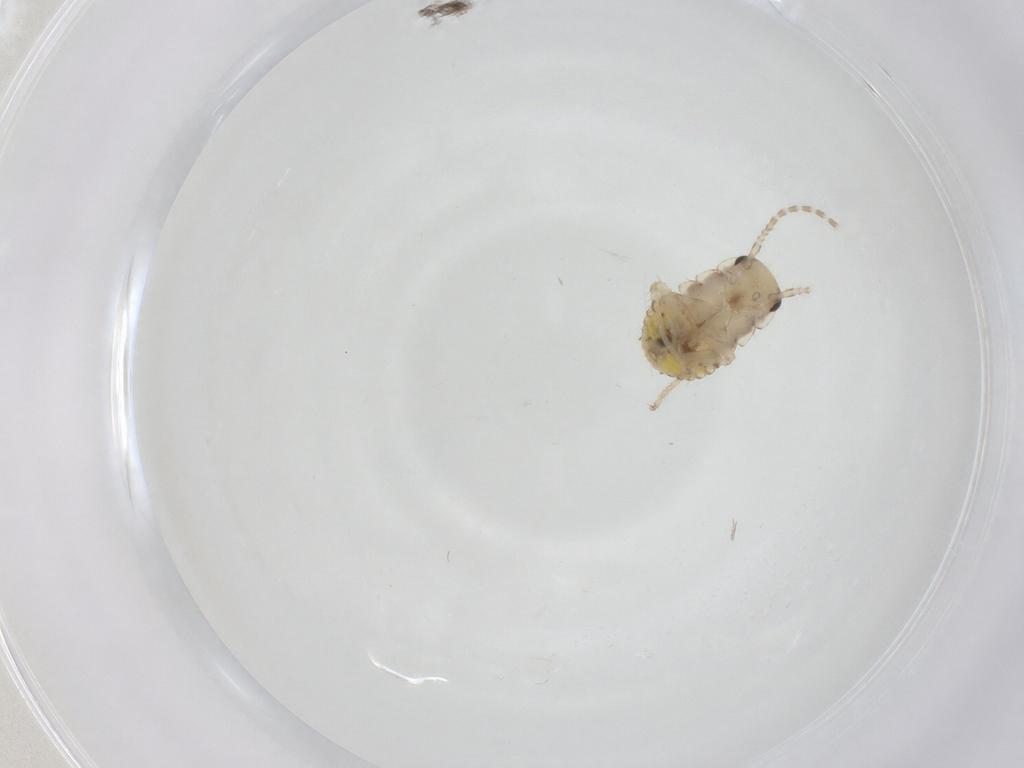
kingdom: Animalia
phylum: Arthropoda
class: Insecta
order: Blattodea
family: Ectobiidae
